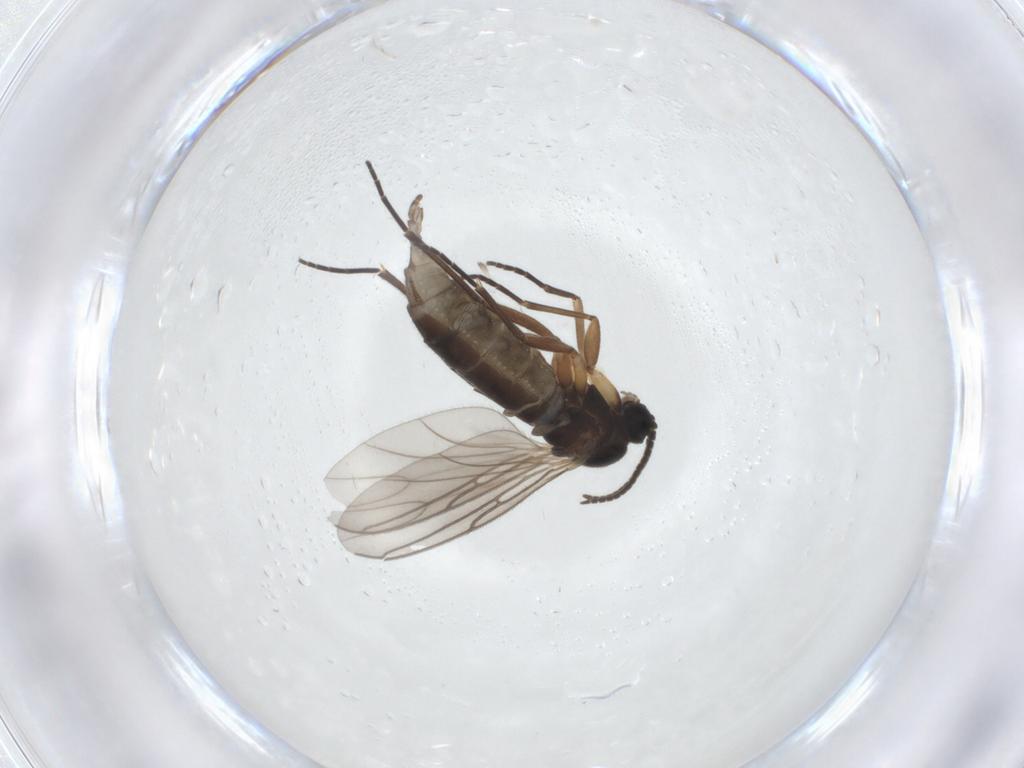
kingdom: Animalia
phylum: Arthropoda
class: Insecta
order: Diptera
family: Sciaridae
